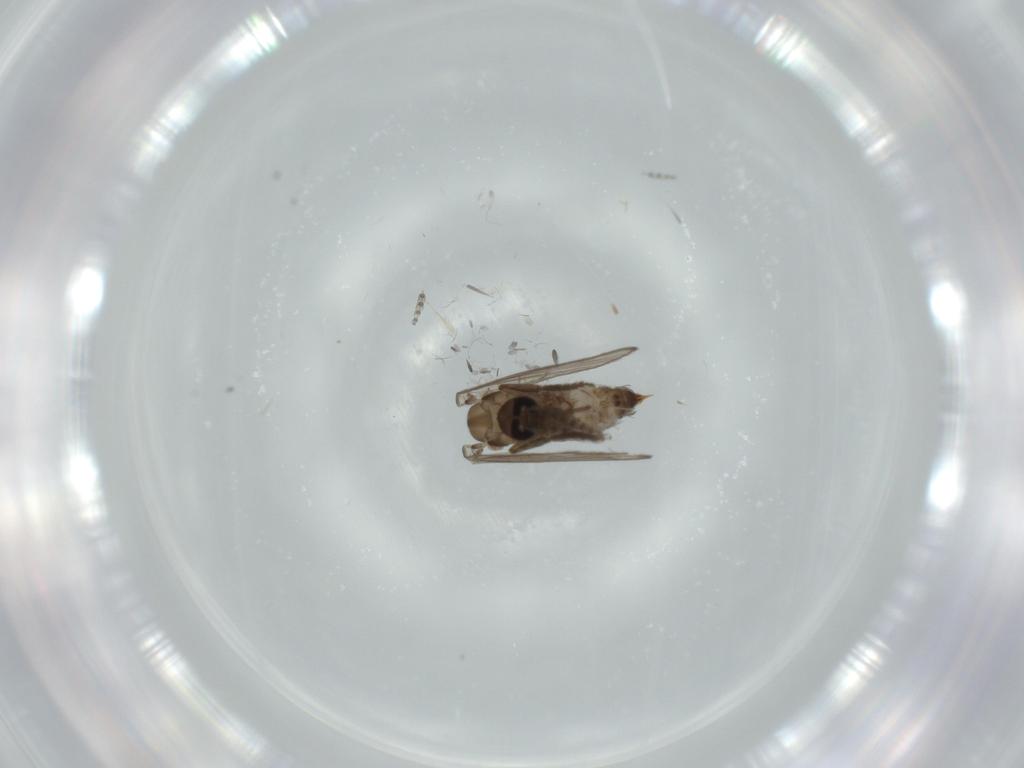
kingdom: Animalia
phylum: Arthropoda
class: Insecta
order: Diptera
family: Psychodidae
